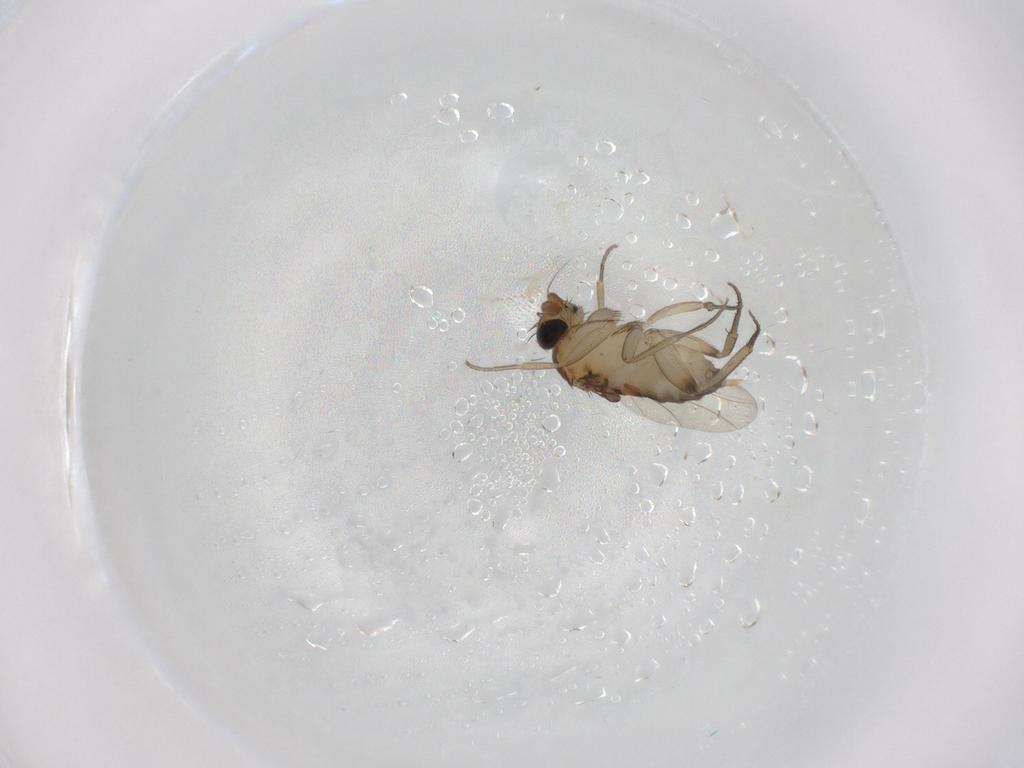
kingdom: Animalia
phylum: Arthropoda
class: Insecta
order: Diptera
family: Phoridae
